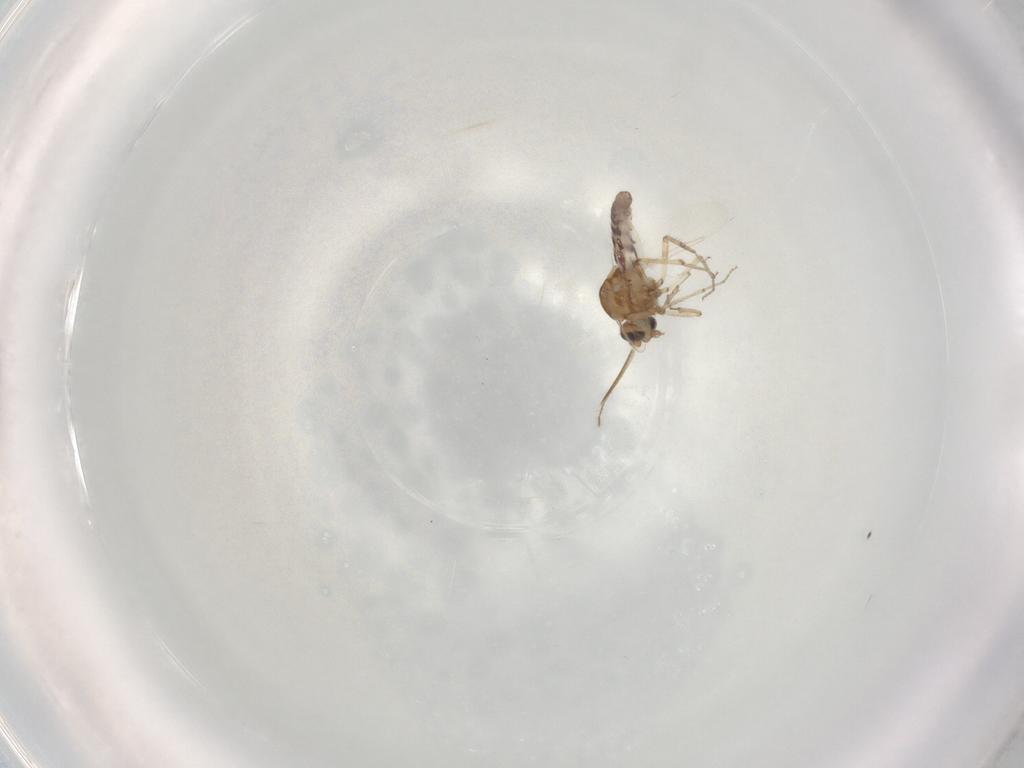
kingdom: Animalia
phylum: Arthropoda
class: Insecta
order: Diptera
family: Ceratopogonidae
